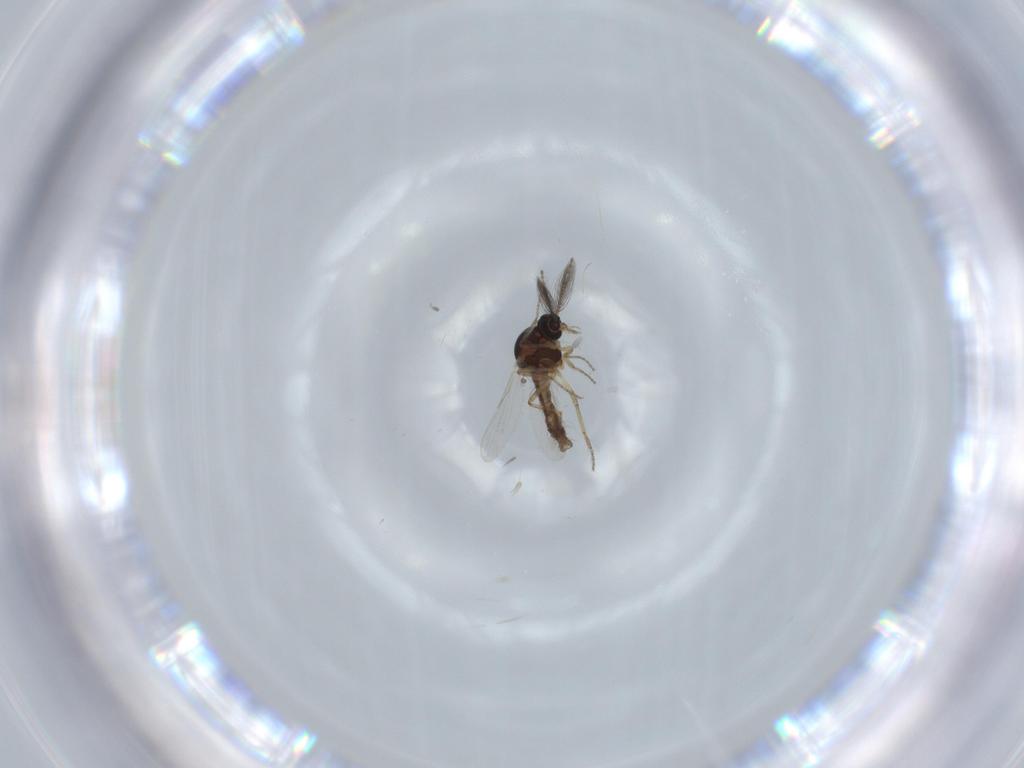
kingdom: Animalia
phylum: Arthropoda
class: Insecta
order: Diptera
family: Ceratopogonidae
